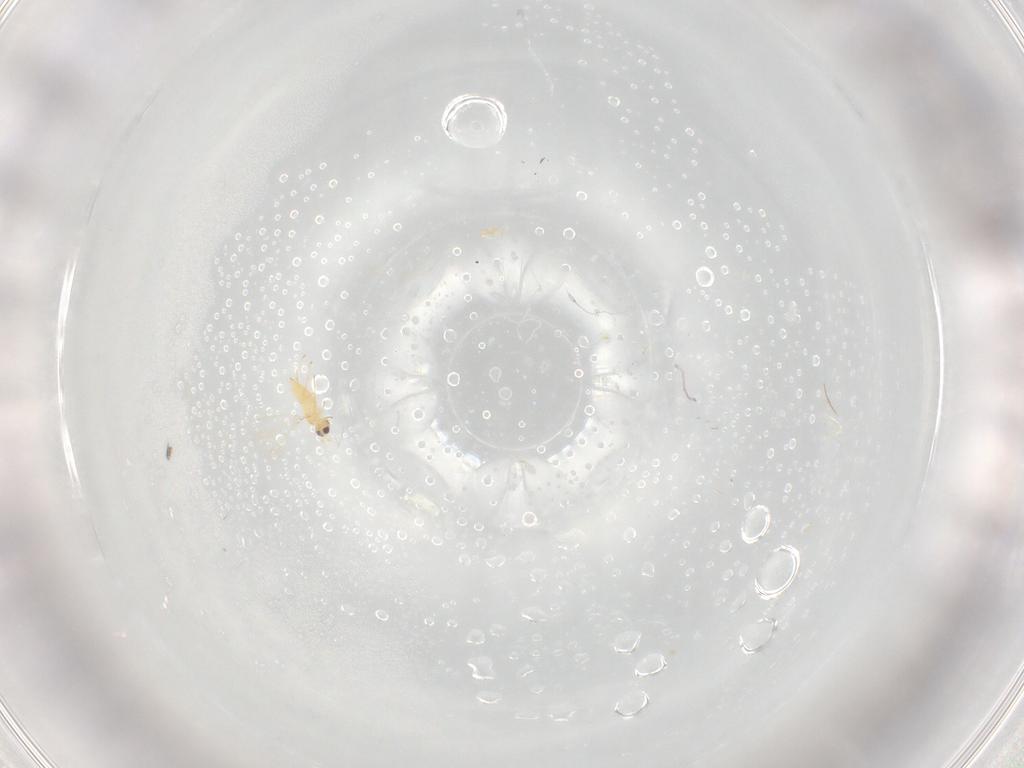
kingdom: Animalia
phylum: Arthropoda
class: Insecta
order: Hymenoptera
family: Mymaridae
